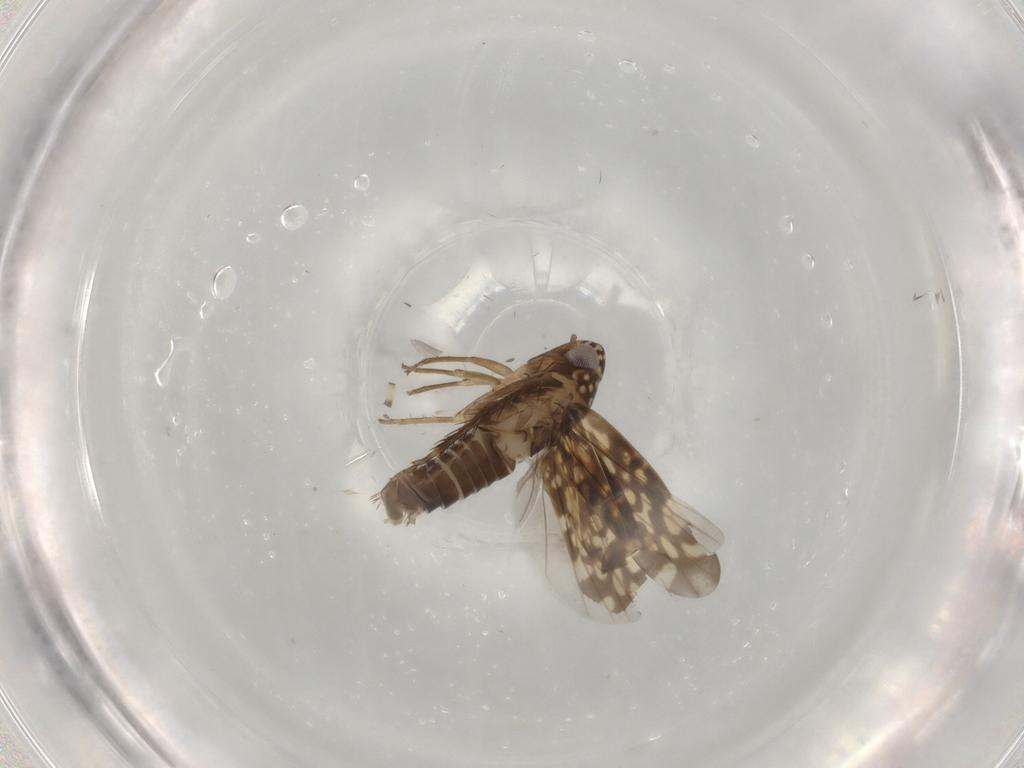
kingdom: Animalia
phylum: Arthropoda
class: Insecta
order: Hemiptera
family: Cicadellidae
